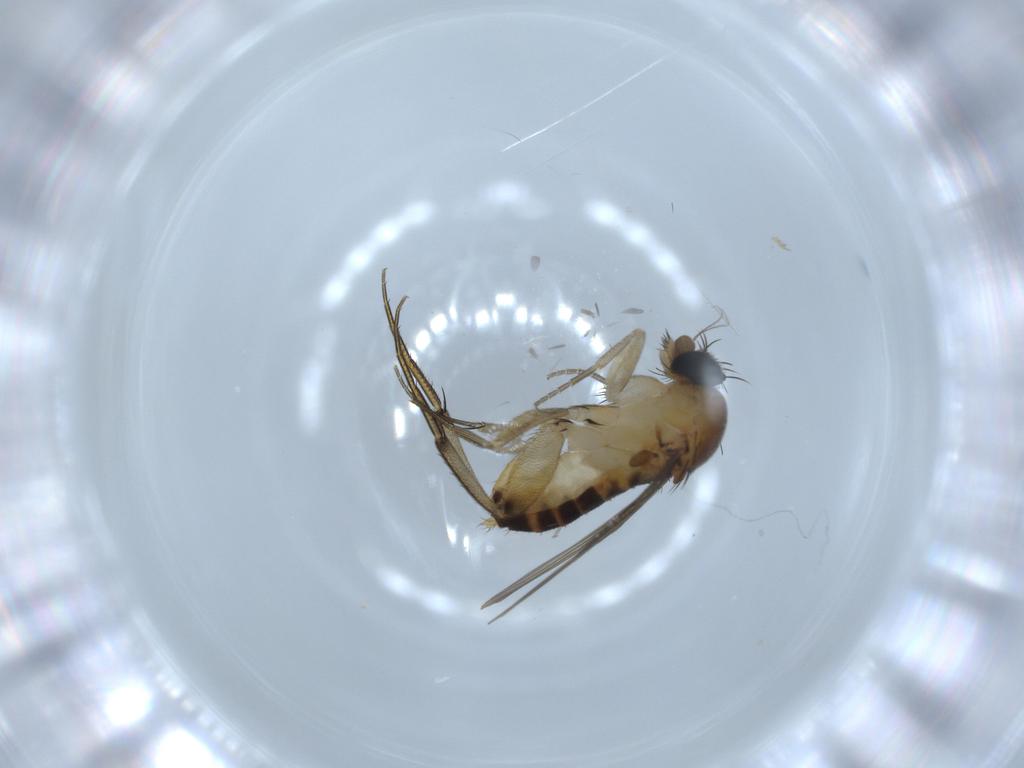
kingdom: Animalia
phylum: Arthropoda
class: Insecta
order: Diptera
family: Phoridae
